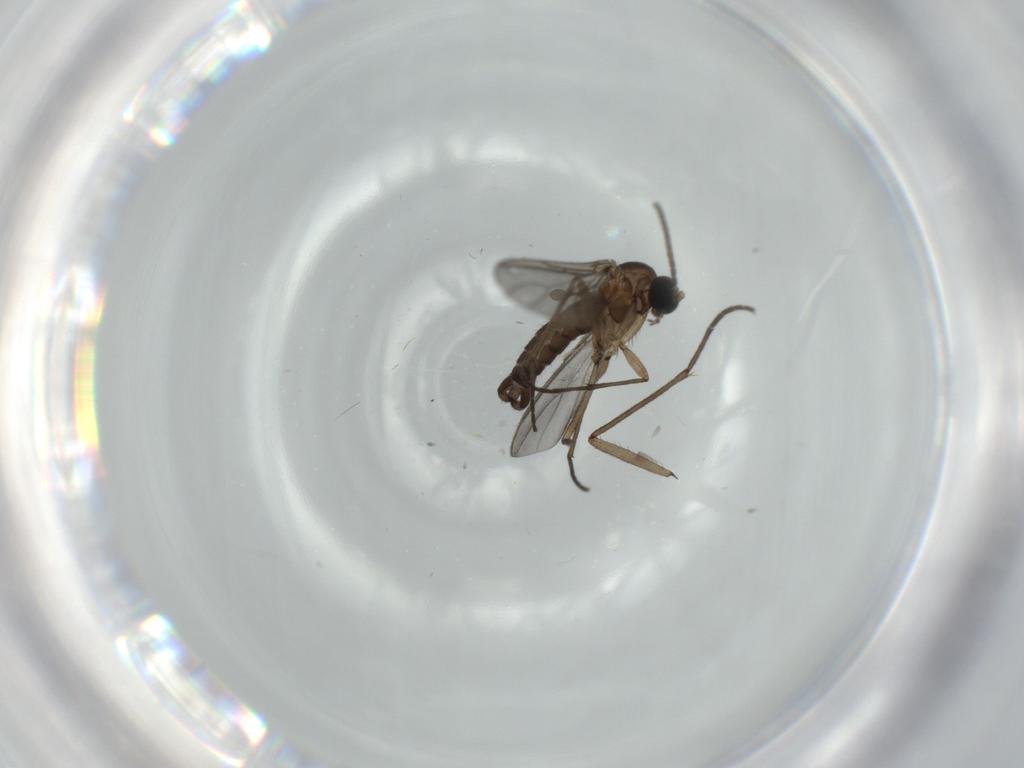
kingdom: Animalia
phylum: Arthropoda
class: Insecta
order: Diptera
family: Sciaridae
